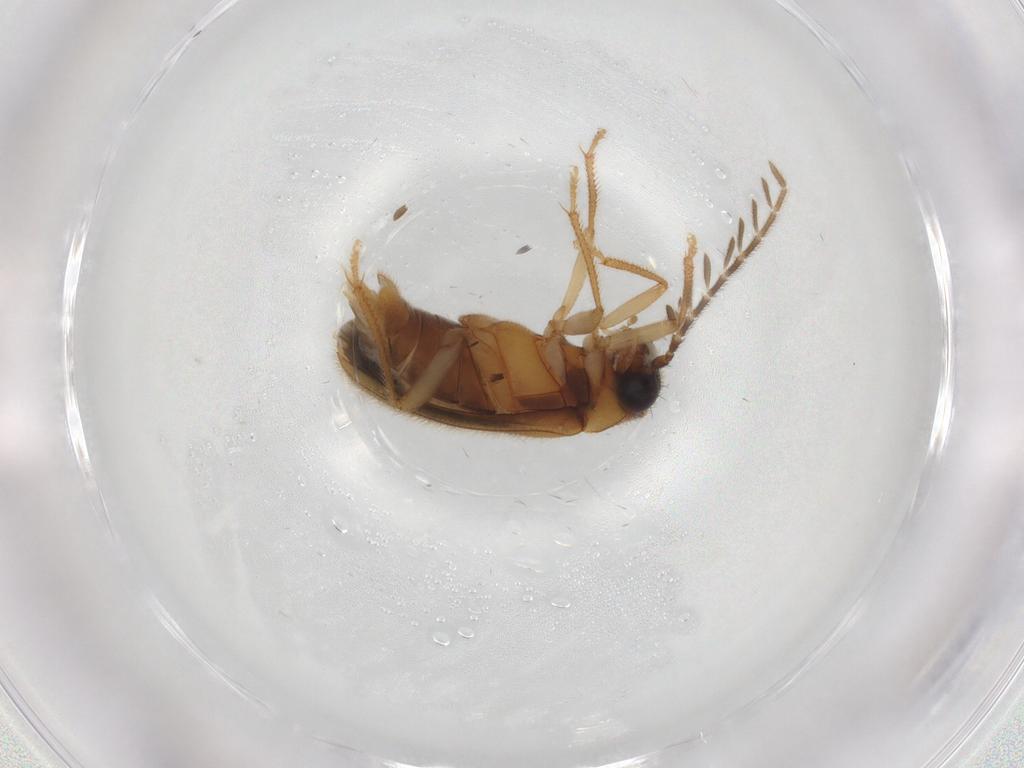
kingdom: Animalia
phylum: Arthropoda
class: Insecta
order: Coleoptera
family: Ptilodactylidae
